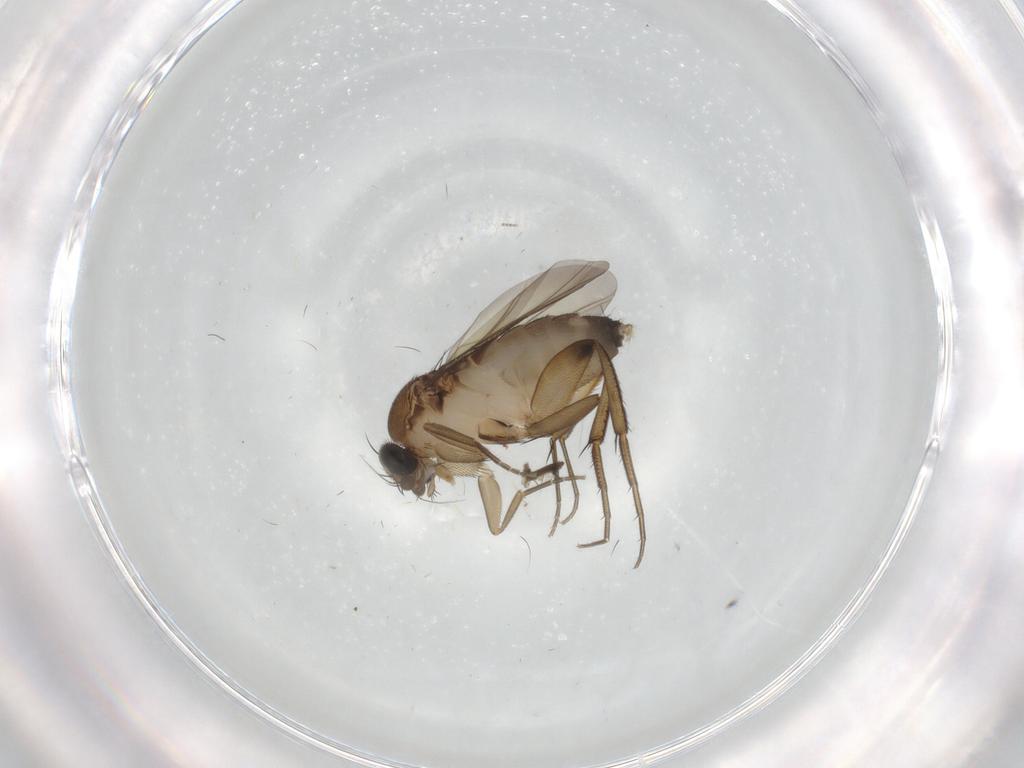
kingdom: Animalia
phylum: Arthropoda
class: Insecta
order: Diptera
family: Phoridae
